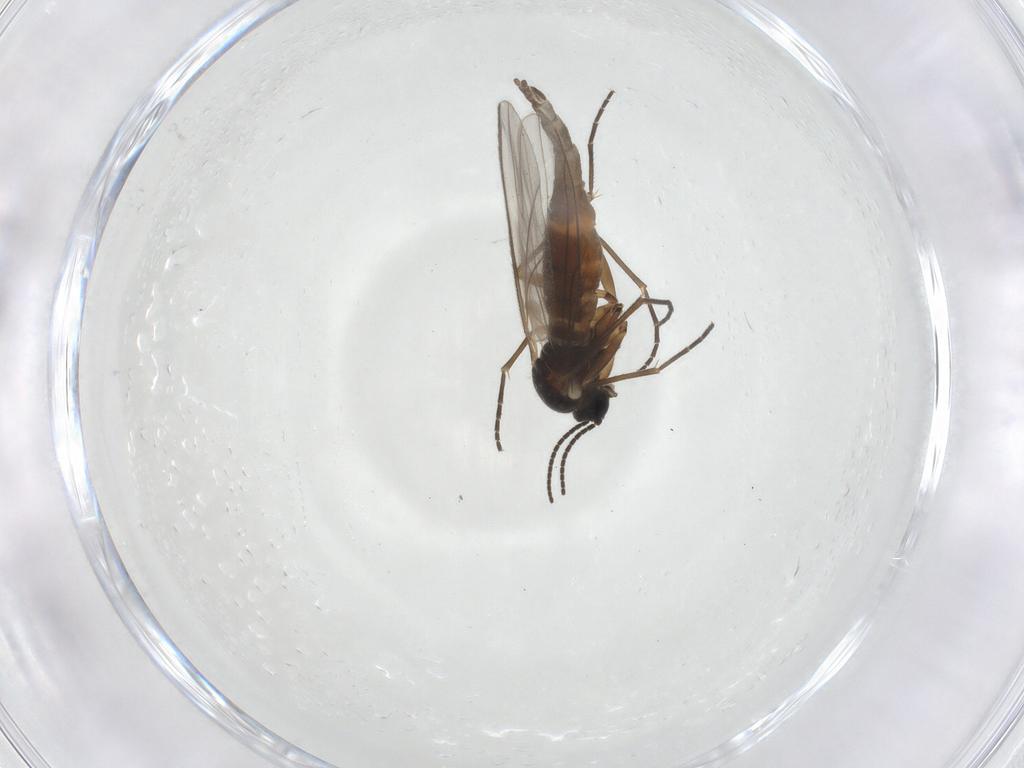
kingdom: Animalia
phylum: Arthropoda
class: Insecta
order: Diptera
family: Sciaridae
